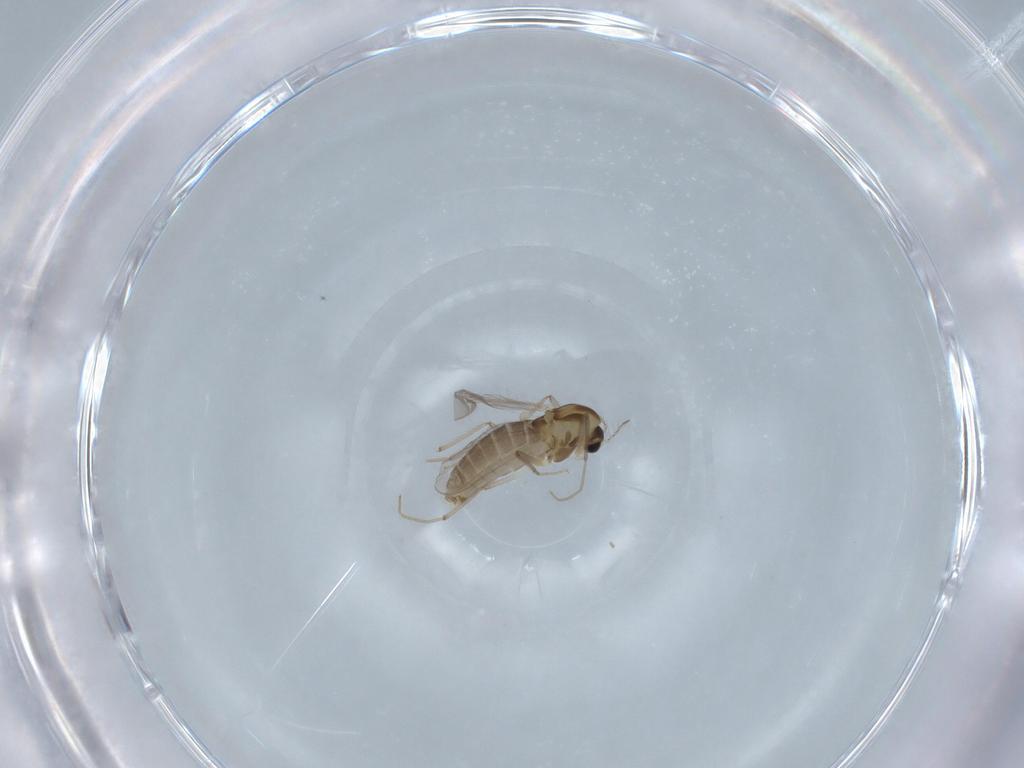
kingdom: Animalia
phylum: Arthropoda
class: Insecta
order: Diptera
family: Chironomidae
